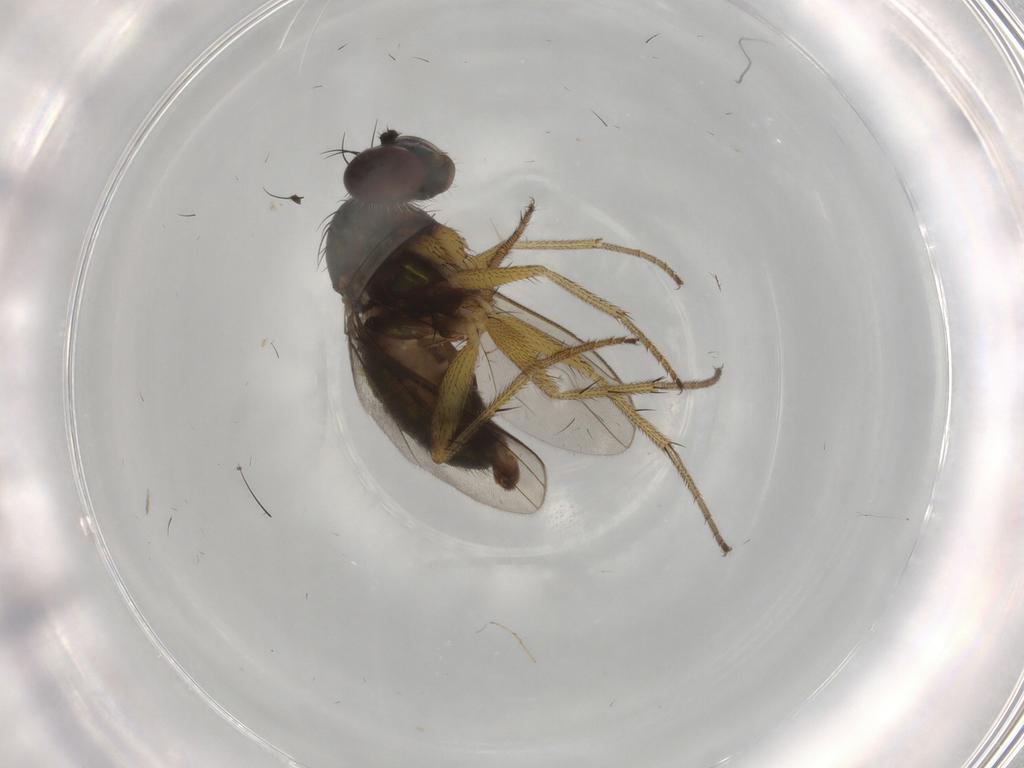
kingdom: Animalia
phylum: Arthropoda
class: Insecta
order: Diptera
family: Dolichopodidae
